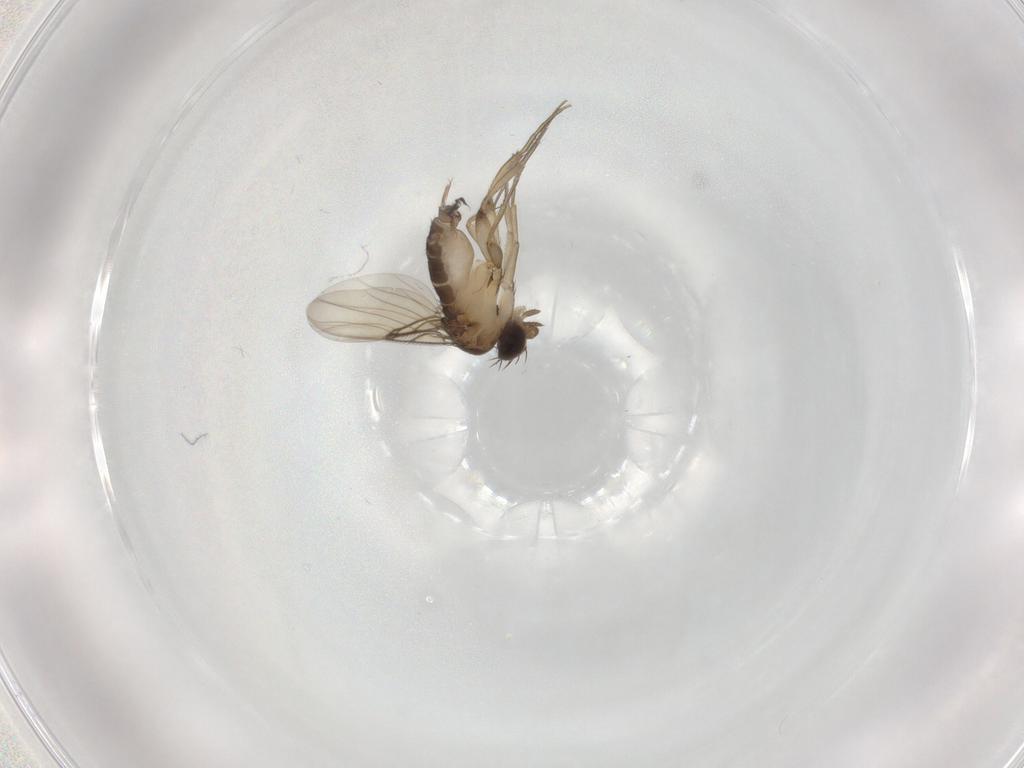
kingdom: Animalia
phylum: Arthropoda
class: Insecta
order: Diptera
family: Phoridae
